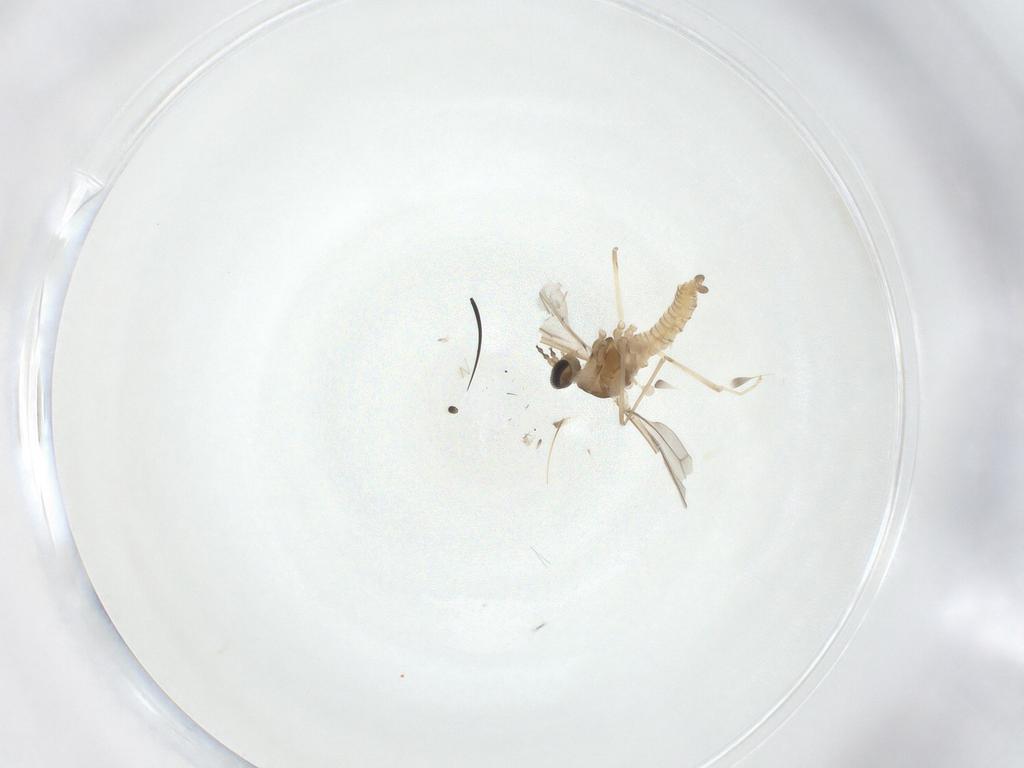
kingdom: Animalia
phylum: Arthropoda
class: Insecta
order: Diptera
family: Cecidomyiidae
